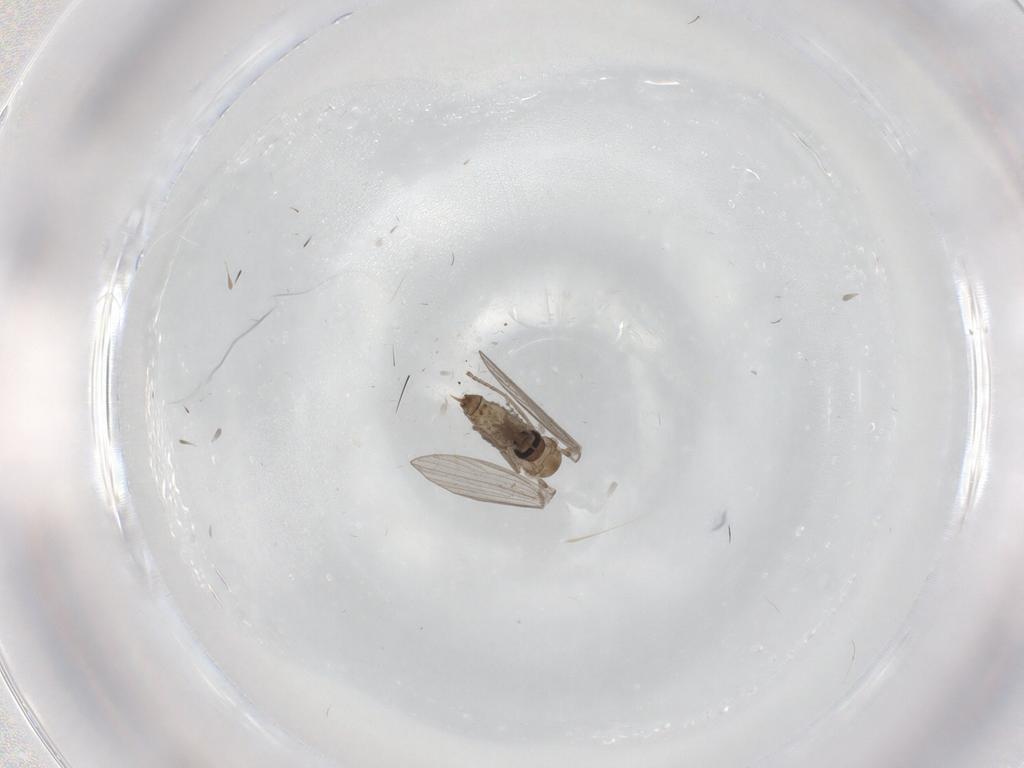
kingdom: Animalia
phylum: Arthropoda
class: Insecta
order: Diptera
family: Psychodidae
